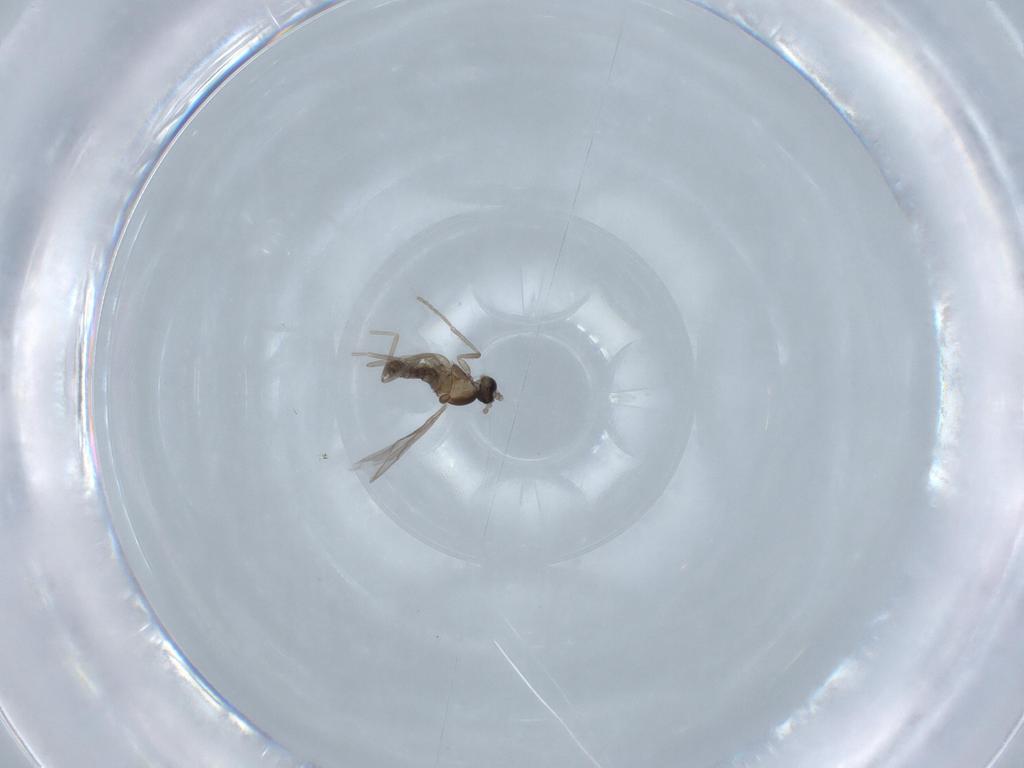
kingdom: Animalia
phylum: Arthropoda
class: Insecta
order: Diptera
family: Cecidomyiidae
